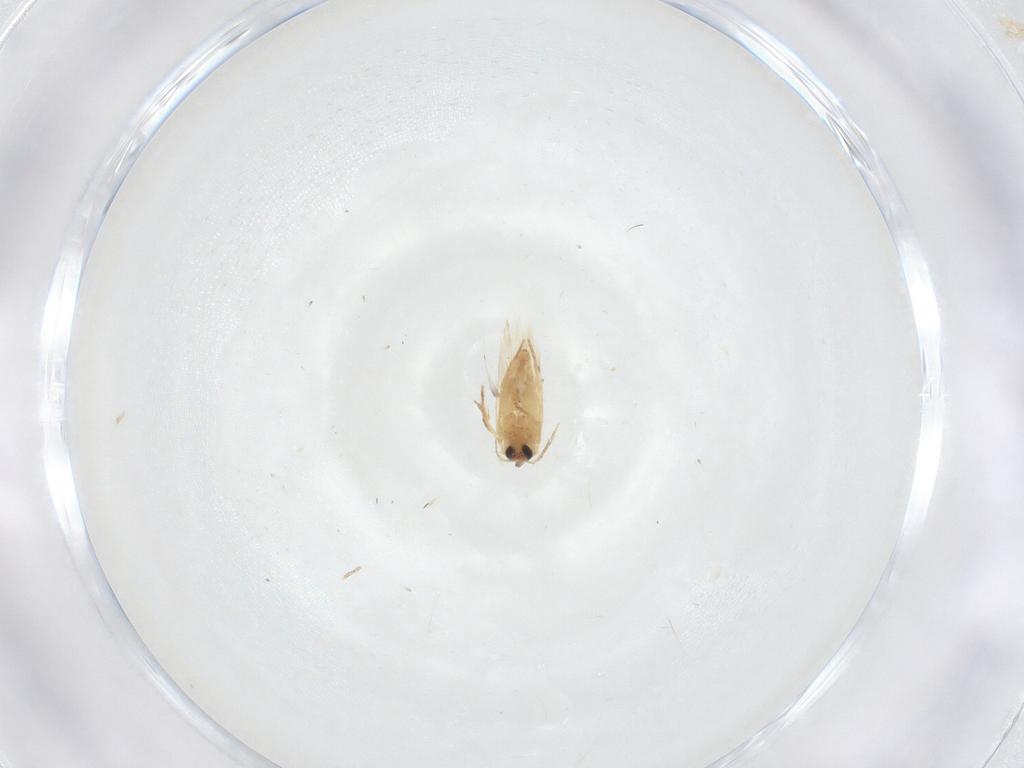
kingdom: Animalia
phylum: Arthropoda
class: Insecta
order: Lepidoptera
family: Crambidae
